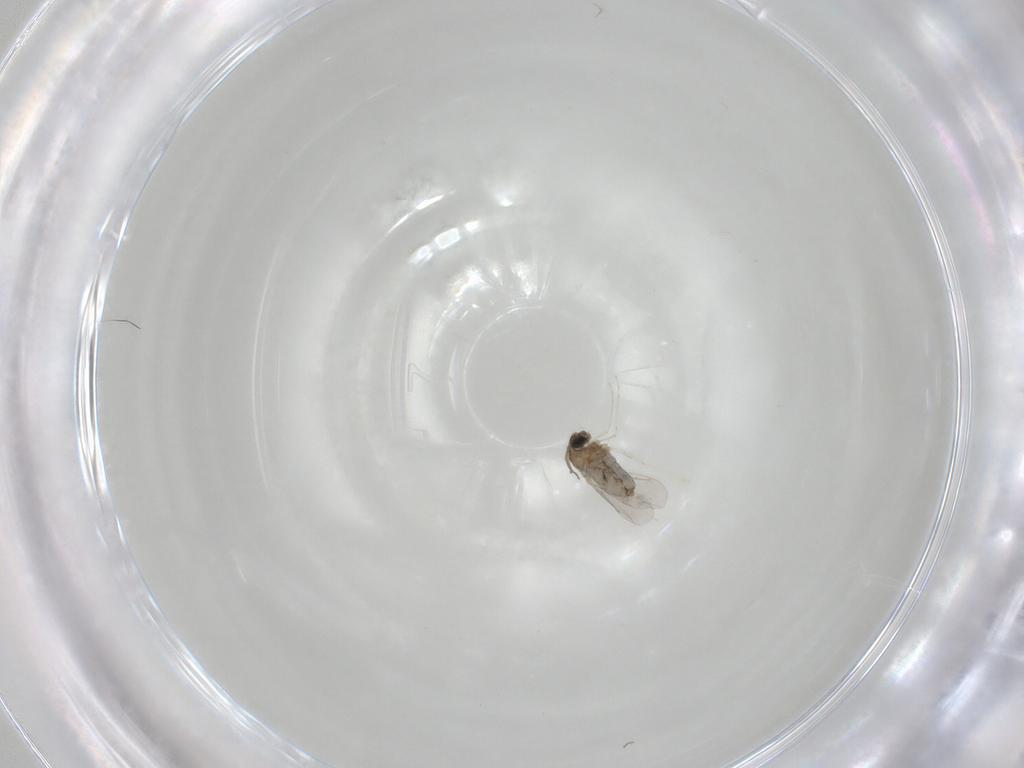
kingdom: Animalia
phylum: Arthropoda
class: Insecta
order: Diptera
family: Cecidomyiidae
